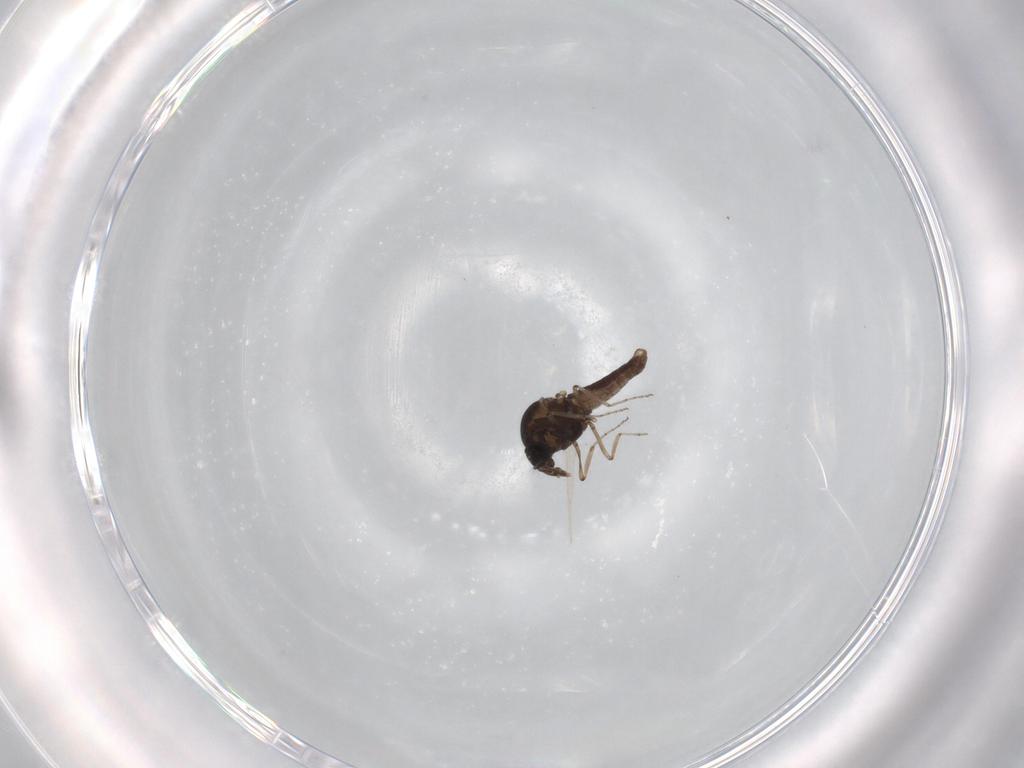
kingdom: Animalia
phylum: Arthropoda
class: Insecta
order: Diptera
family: Ceratopogonidae
